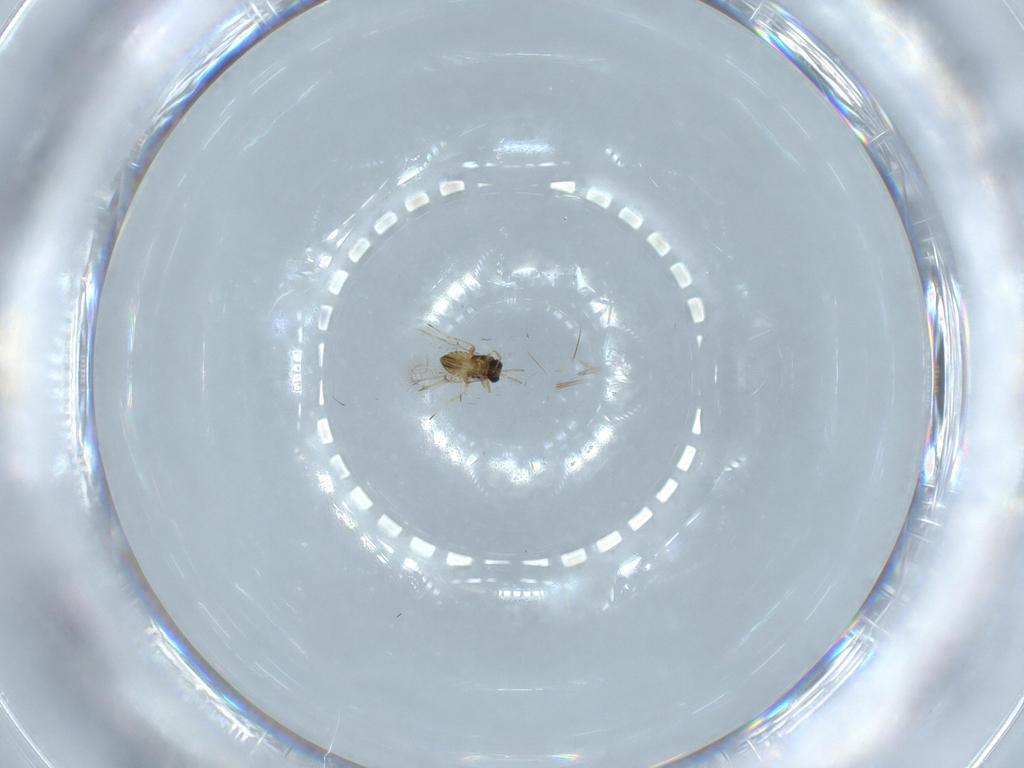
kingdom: Animalia
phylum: Arthropoda
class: Insecta
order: Hymenoptera
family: Trichogrammatidae
